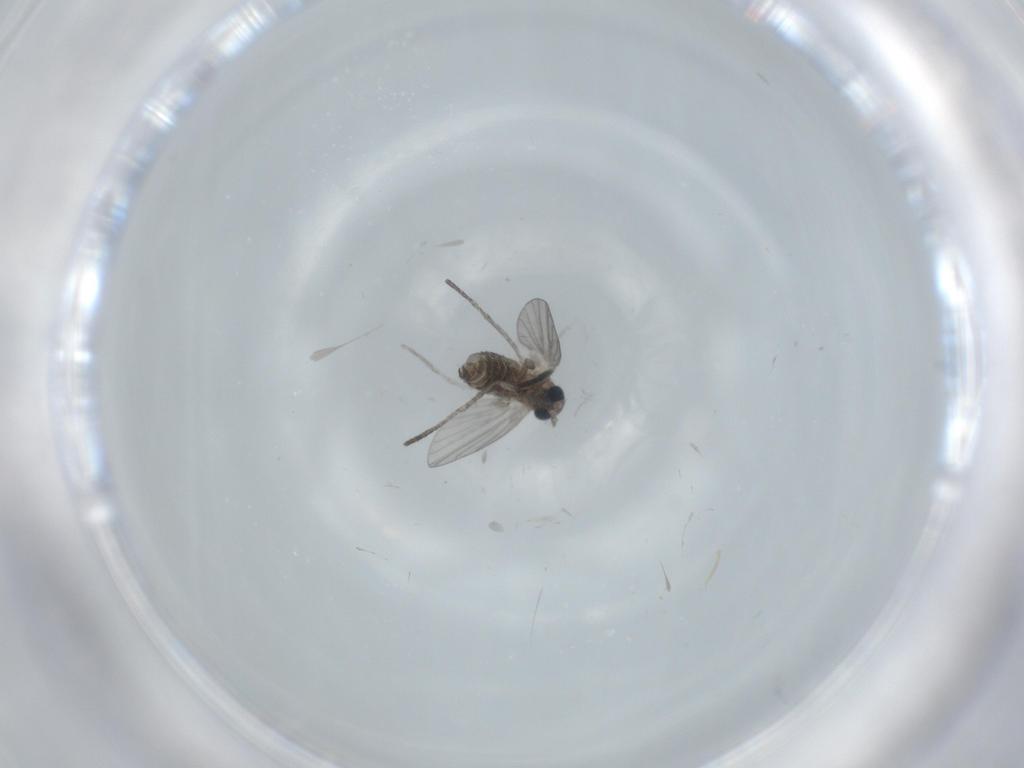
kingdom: Animalia
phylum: Arthropoda
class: Insecta
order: Diptera
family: Psychodidae
